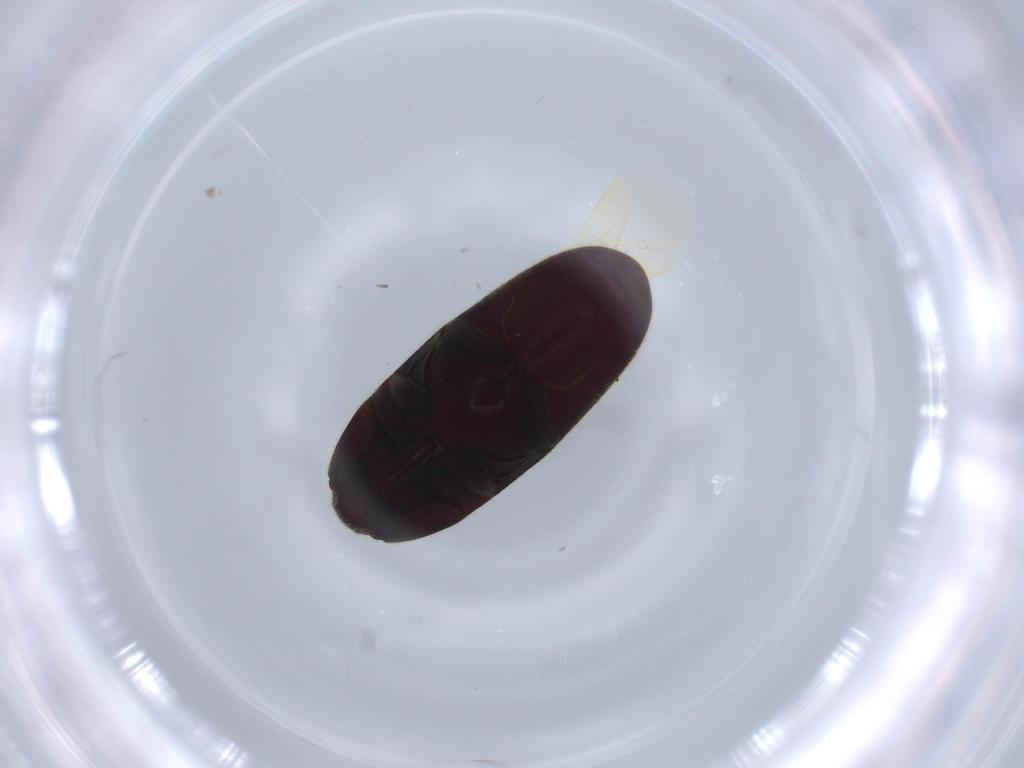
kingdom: Animalia
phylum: Arthropoda
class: Insecta
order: Coleoptera
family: Throscidae
